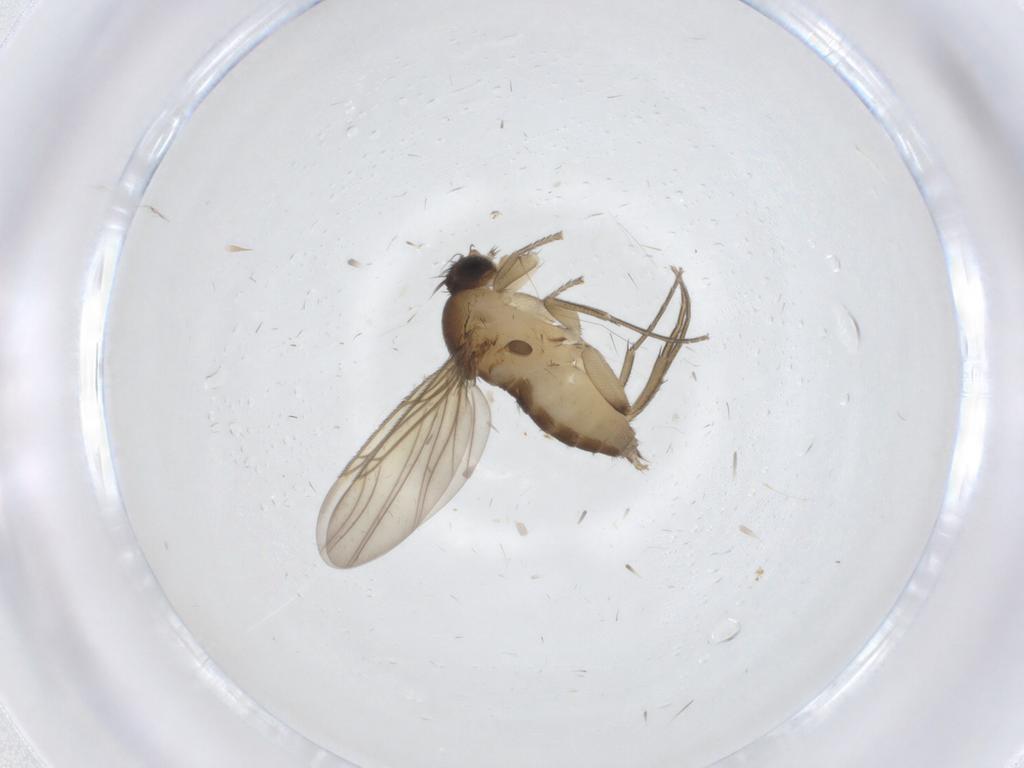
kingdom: Animalia
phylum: Arthropoda
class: Insecta
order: Diptera
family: Phoridae
